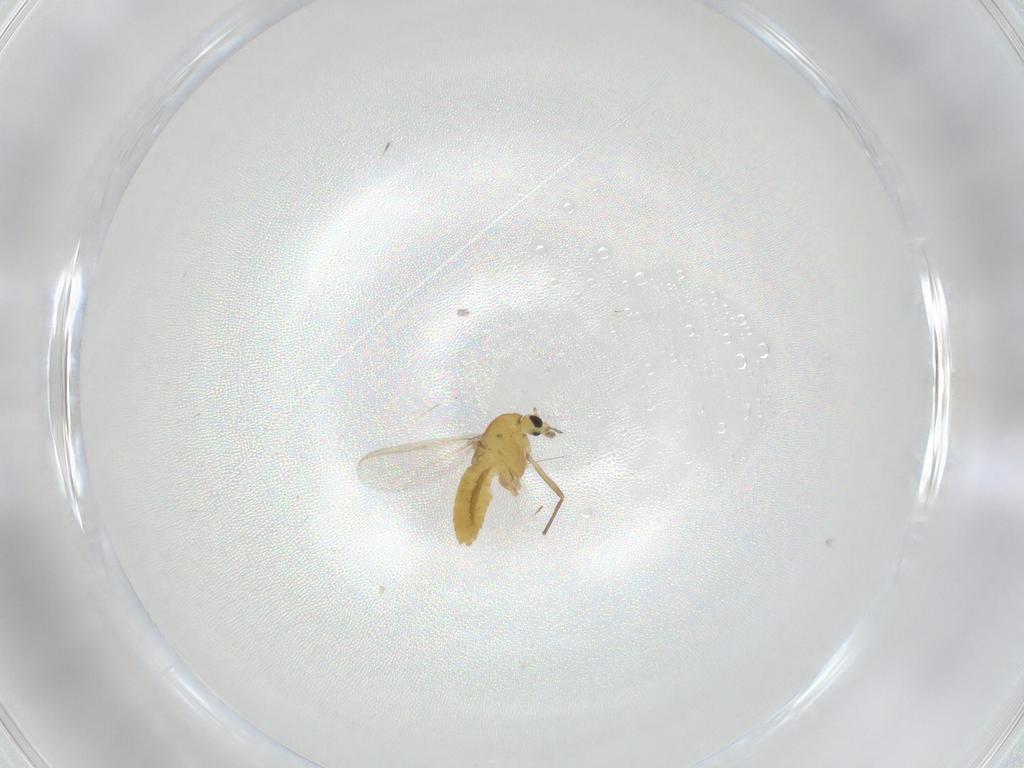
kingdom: Animalia
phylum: Arthropoda
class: Insecta
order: Diptera
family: Chironomidae
